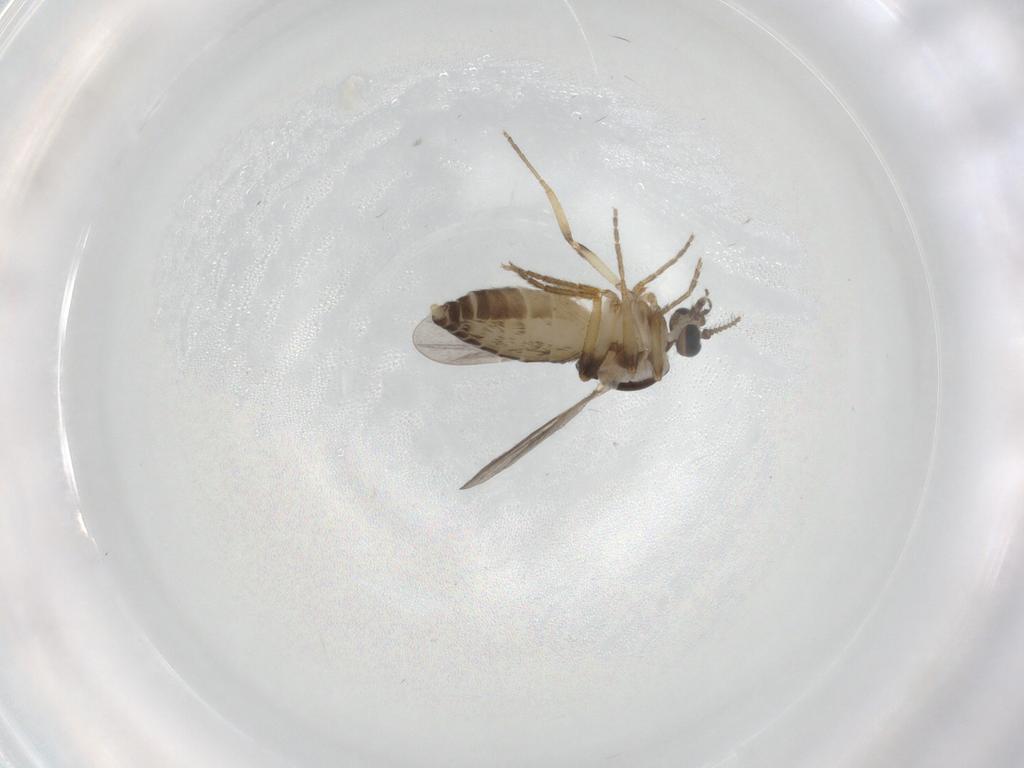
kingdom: Animalia
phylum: Arthropoda
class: Insecta
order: Diptera
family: Ceratopogonidae
